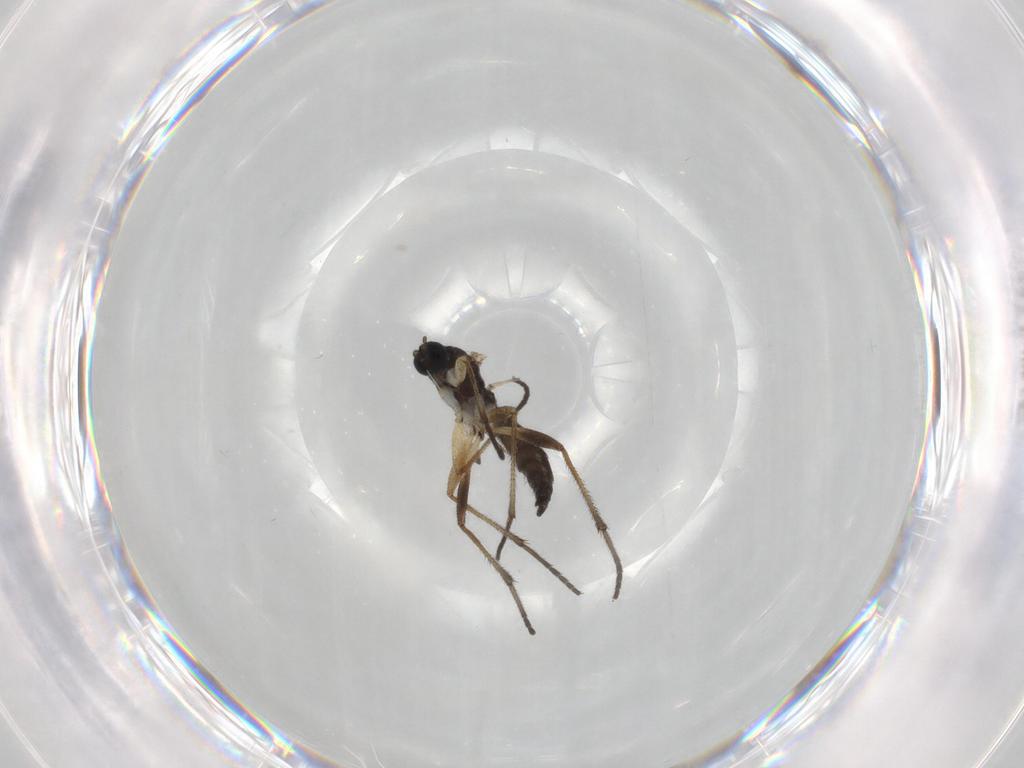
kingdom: Animalia
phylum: Arthropoda
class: Insecta
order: Diptera
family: Sciaridae
